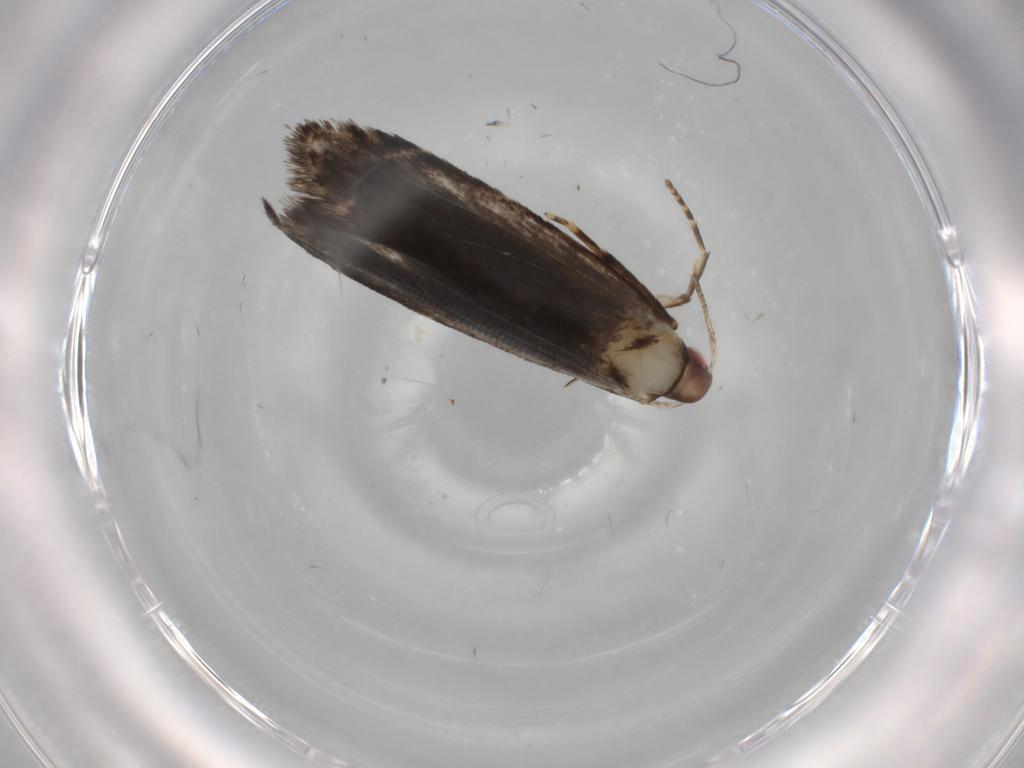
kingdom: Animalia
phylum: Arthropoda
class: Insecta
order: Lepidoptera
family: Gelechiidae
